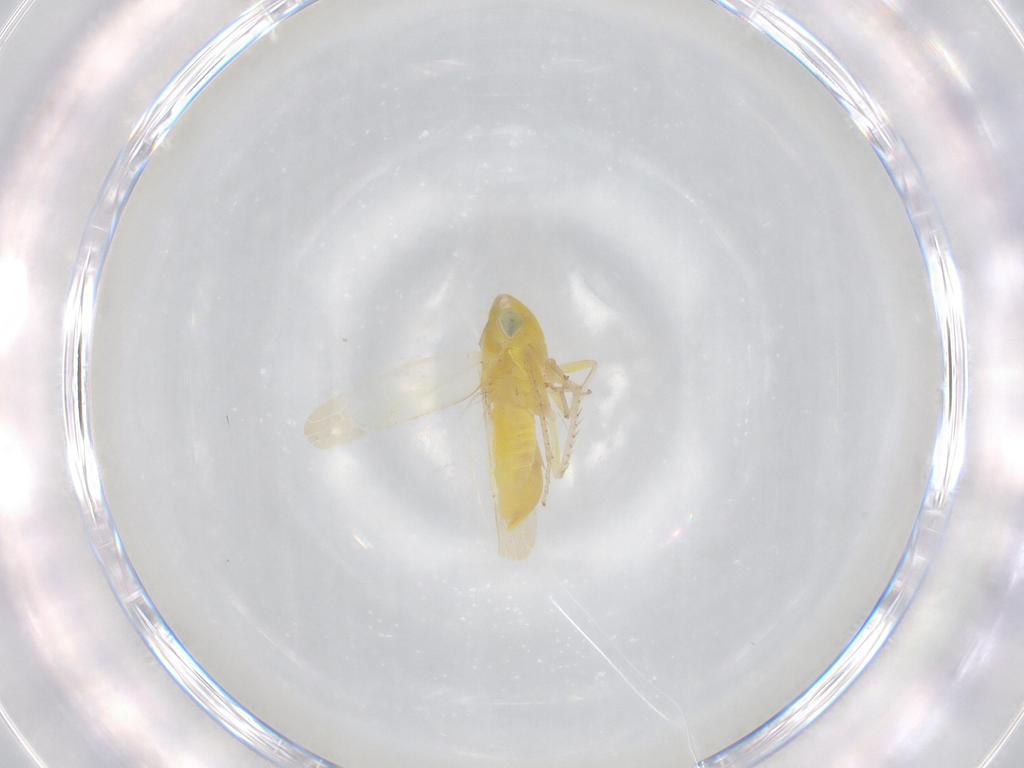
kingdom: Animalia
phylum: Arthropoda
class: Insecta
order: Hemiptera
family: Cicadellidae
